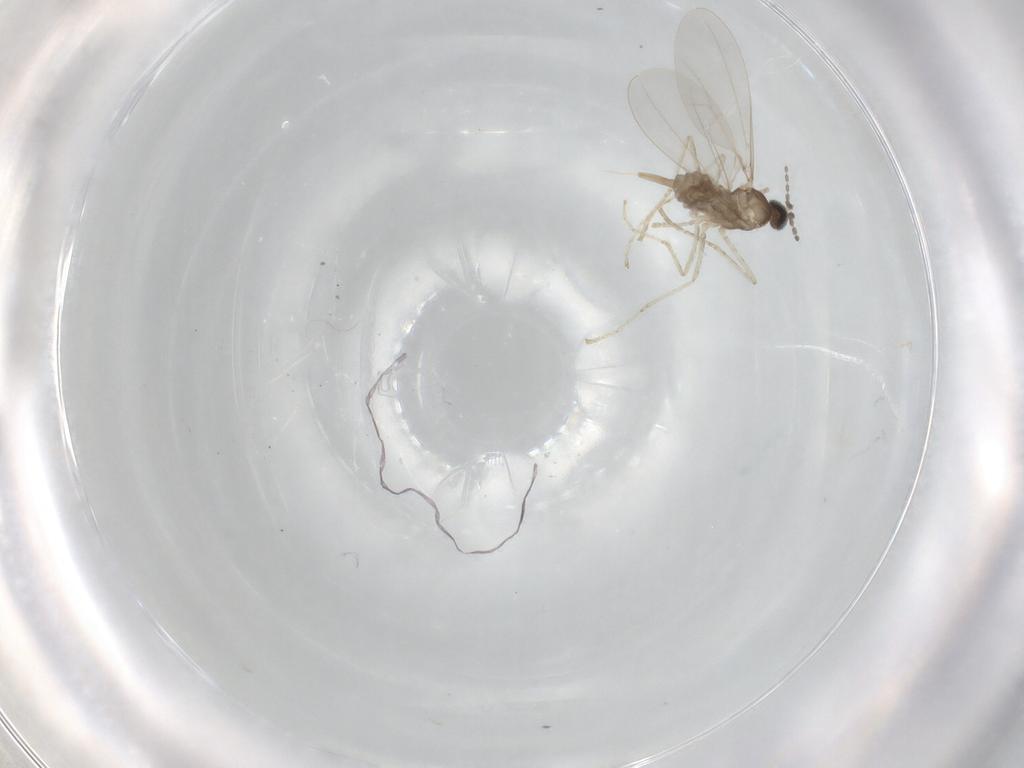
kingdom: Animalia
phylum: Arthropoda
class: Insecta
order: Diptera
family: Cecidomyiidae
